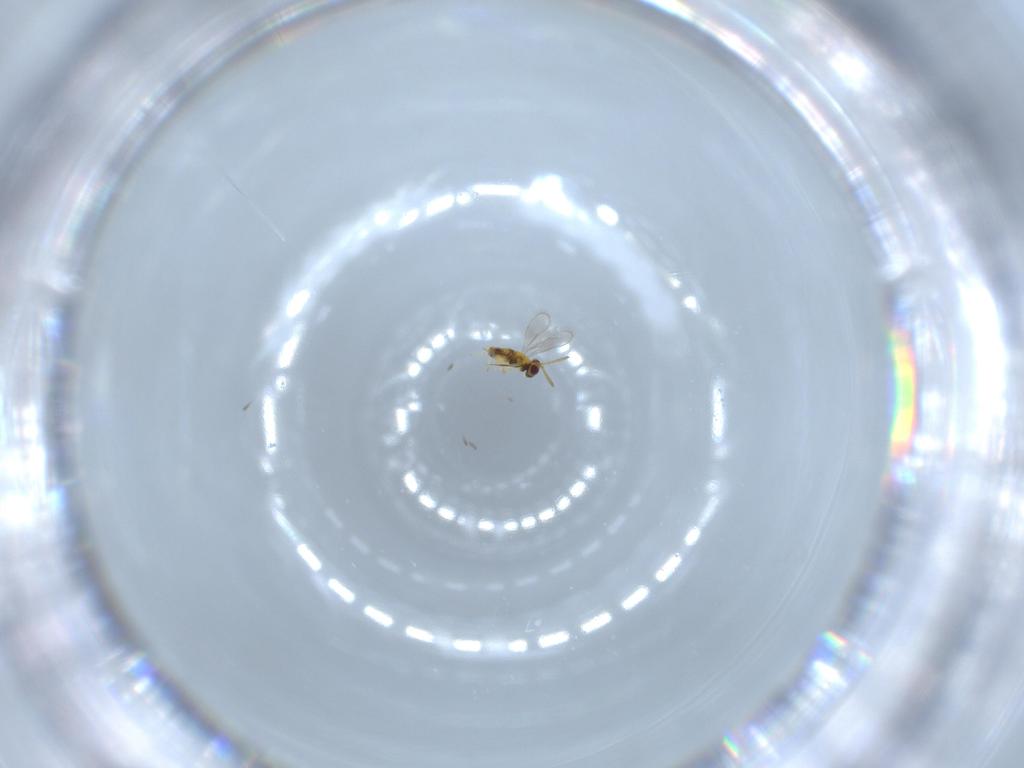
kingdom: Animalia
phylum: Arthropoda
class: Insecta
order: Hymenoptera
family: Aphelinidae
